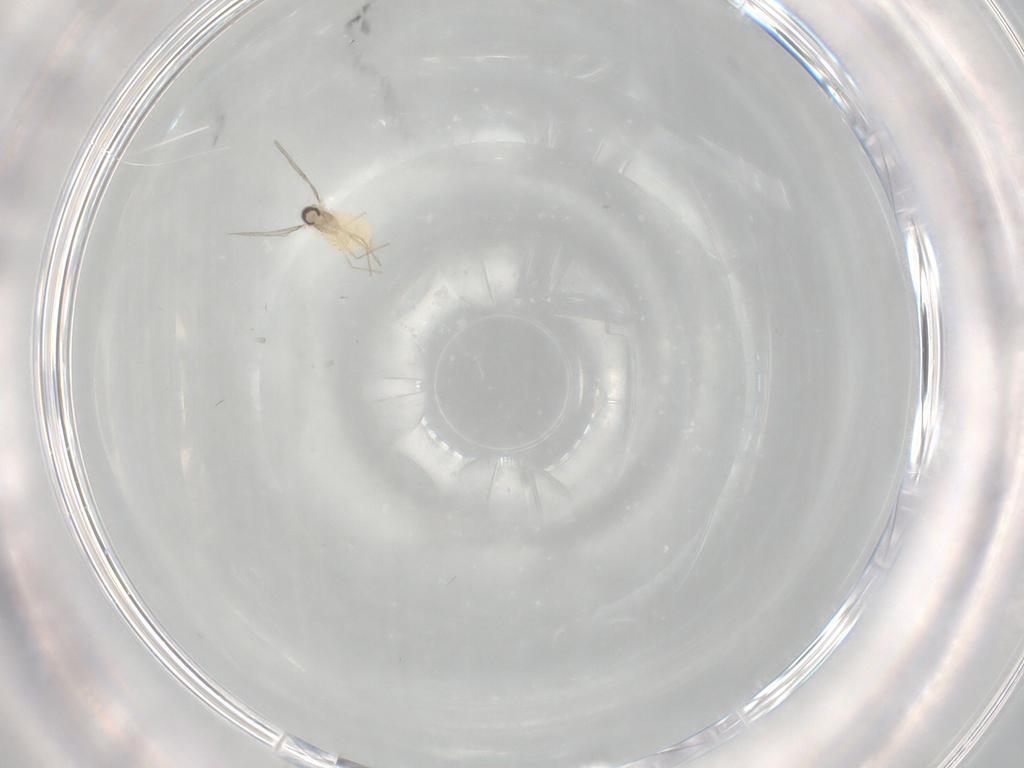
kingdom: Animalia
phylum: Arthropoda
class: Insecta
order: Diptera
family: Cecidomyiidae
